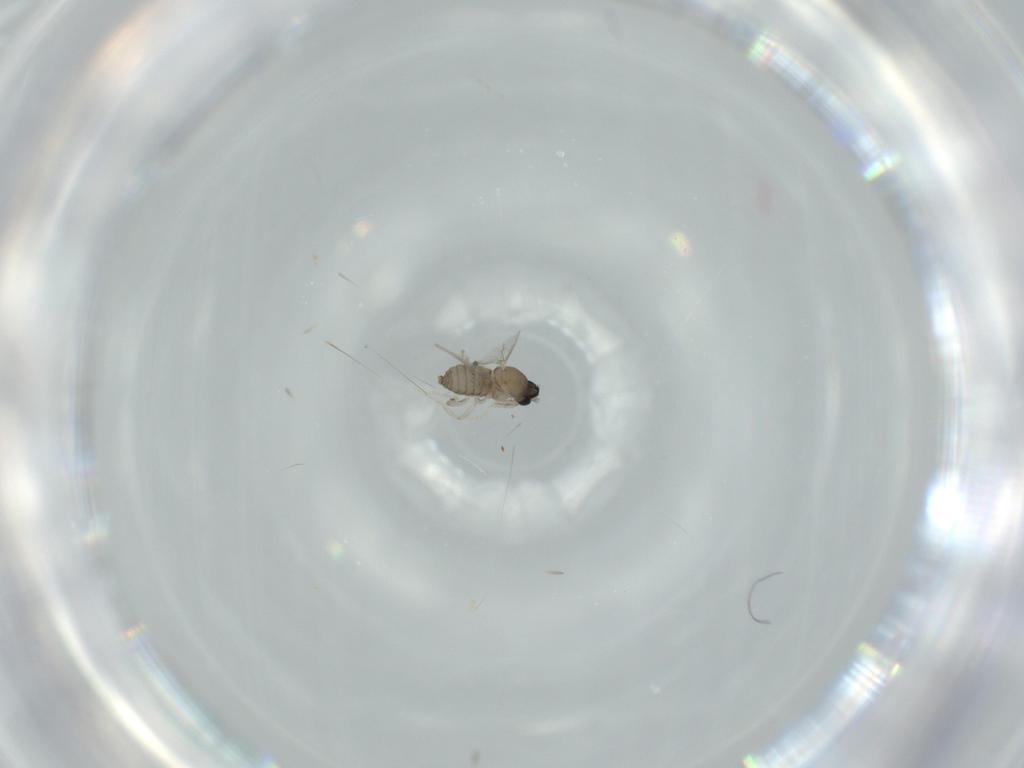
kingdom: Animalia
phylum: Arthropoda
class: Insecta
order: Diptera
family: Cecidomyiidae
